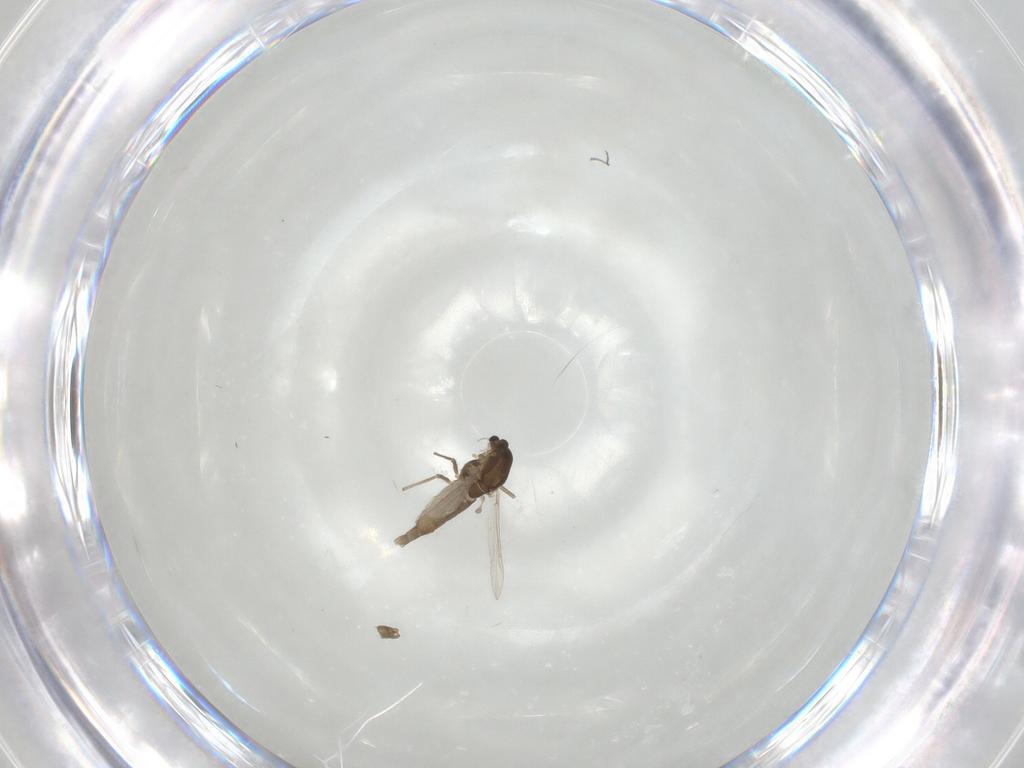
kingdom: Animalia
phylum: Arthropoda
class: Insecta
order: Diptera
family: Chironomidae
